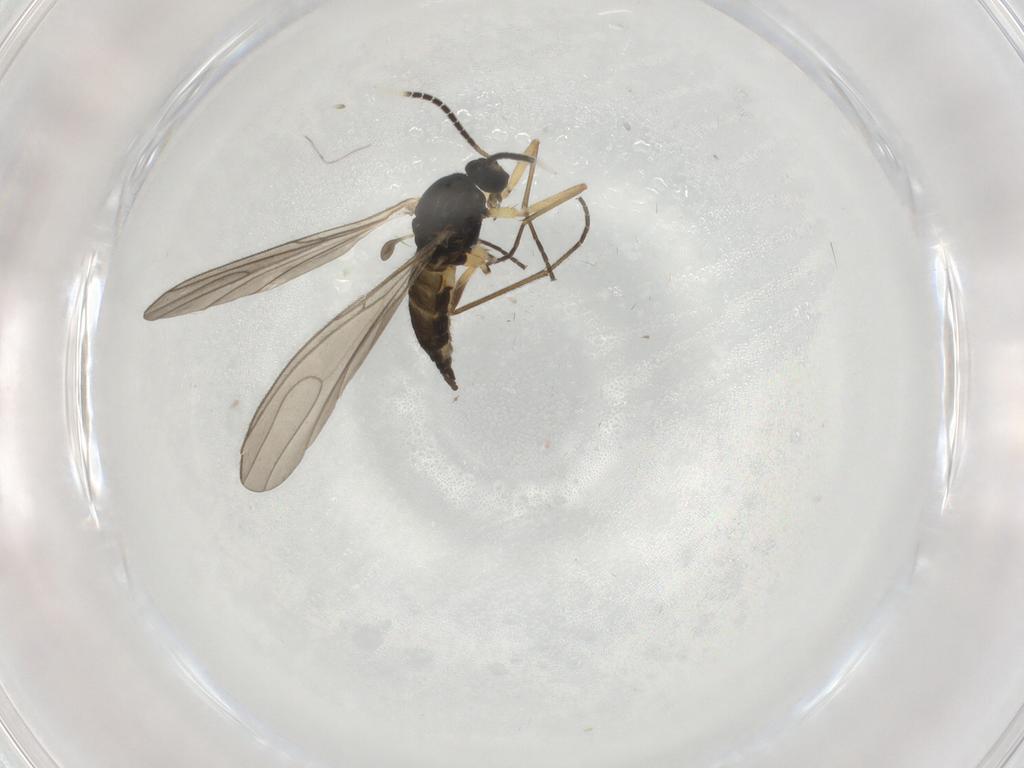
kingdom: Animalia
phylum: Arthropoda
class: Insecta
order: Diptera
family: Sciaridae
